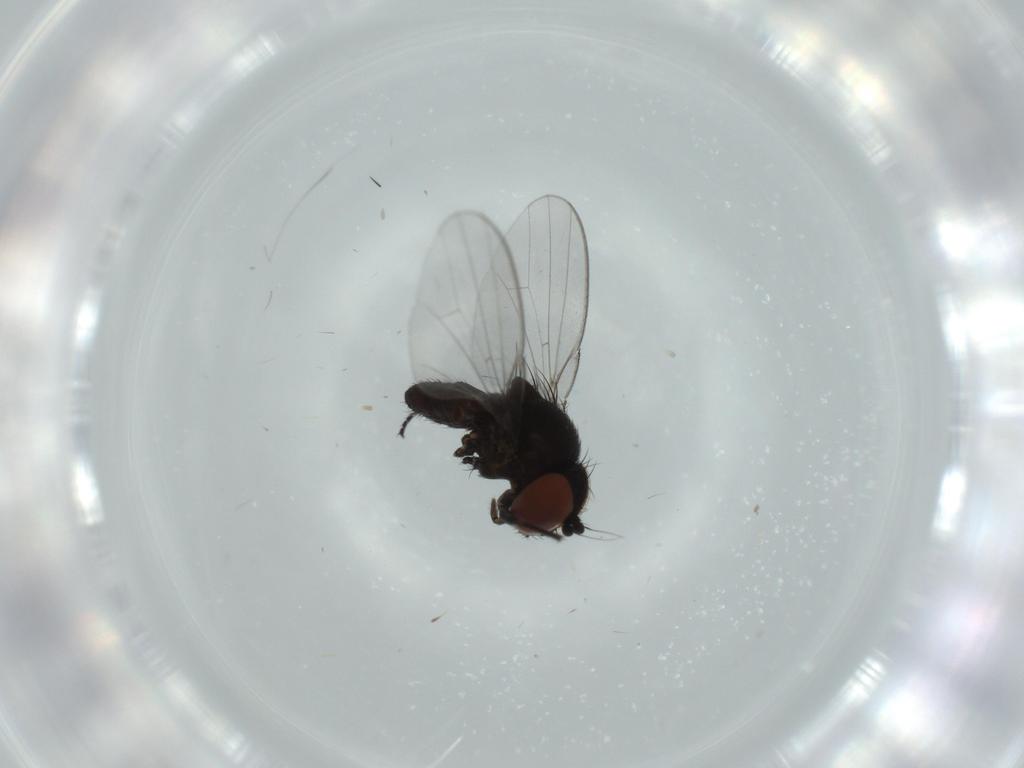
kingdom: Animalia
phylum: Arthropoda
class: Insecta
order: Diptera
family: Milichiidae
